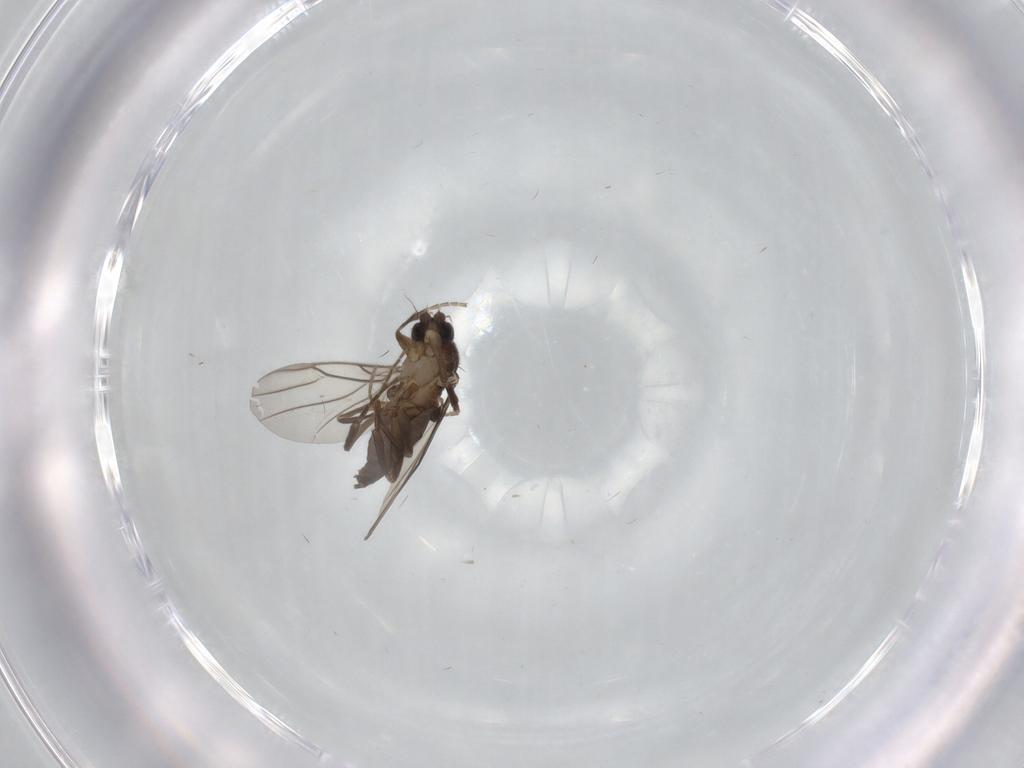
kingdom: Animalia
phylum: Arthropoda
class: Insecta
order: Diptera
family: Phoridae
